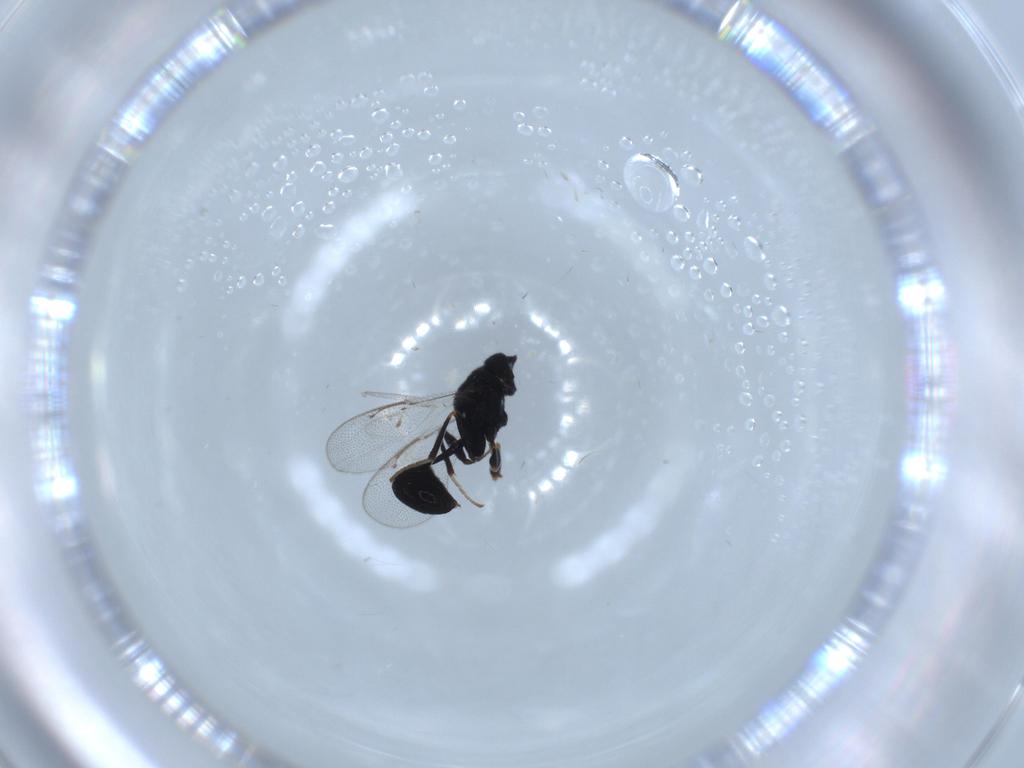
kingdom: Animalia
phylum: Arthropoda
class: Insecta
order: Hymenoptera
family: Eurytomidae
